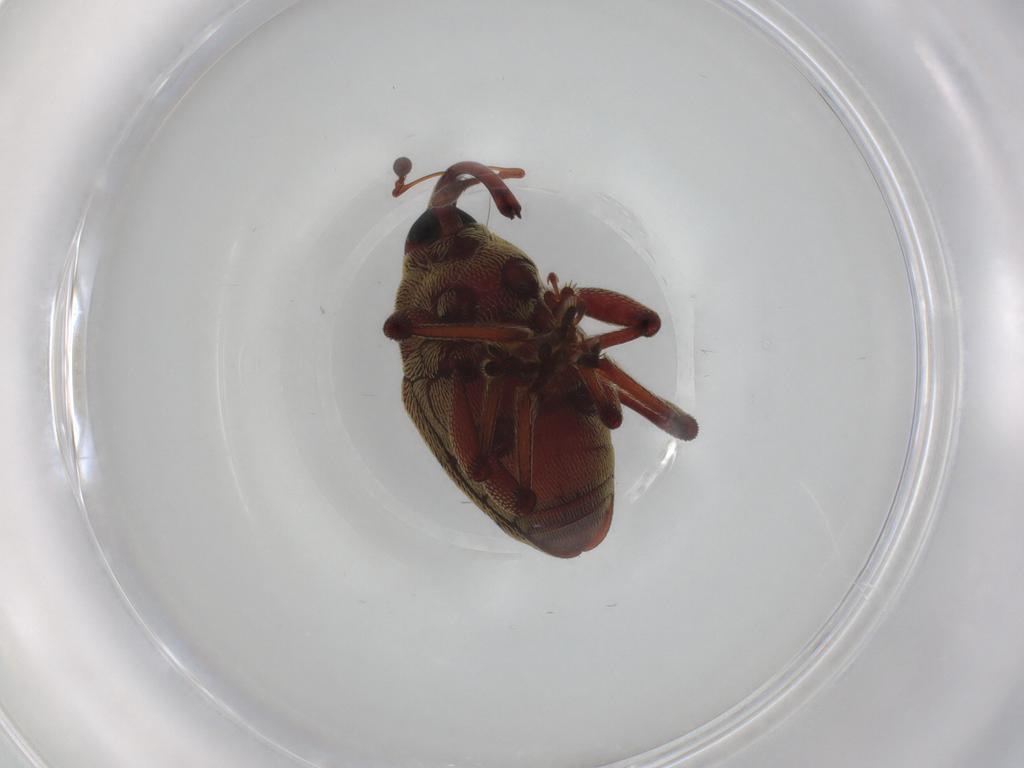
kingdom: Animalia
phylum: Arthropoda
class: Insecta
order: Coleoptera
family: Curculionidae
